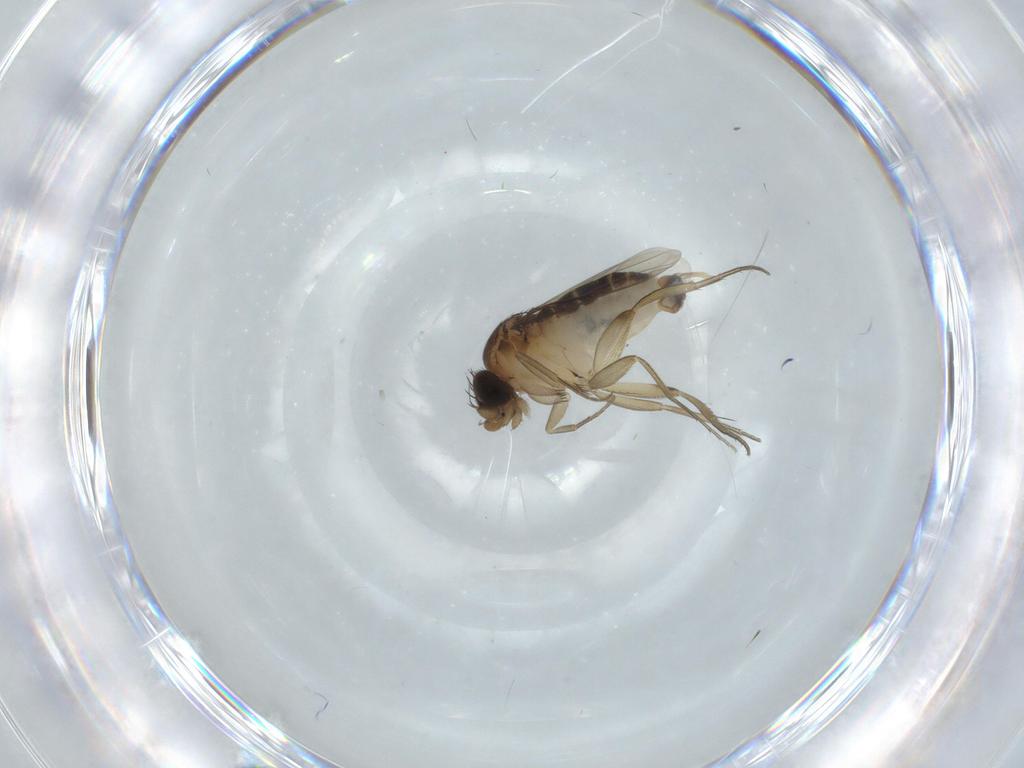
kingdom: Animalia
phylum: Arthropoda
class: Insecta
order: Diptera
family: Phoridae
